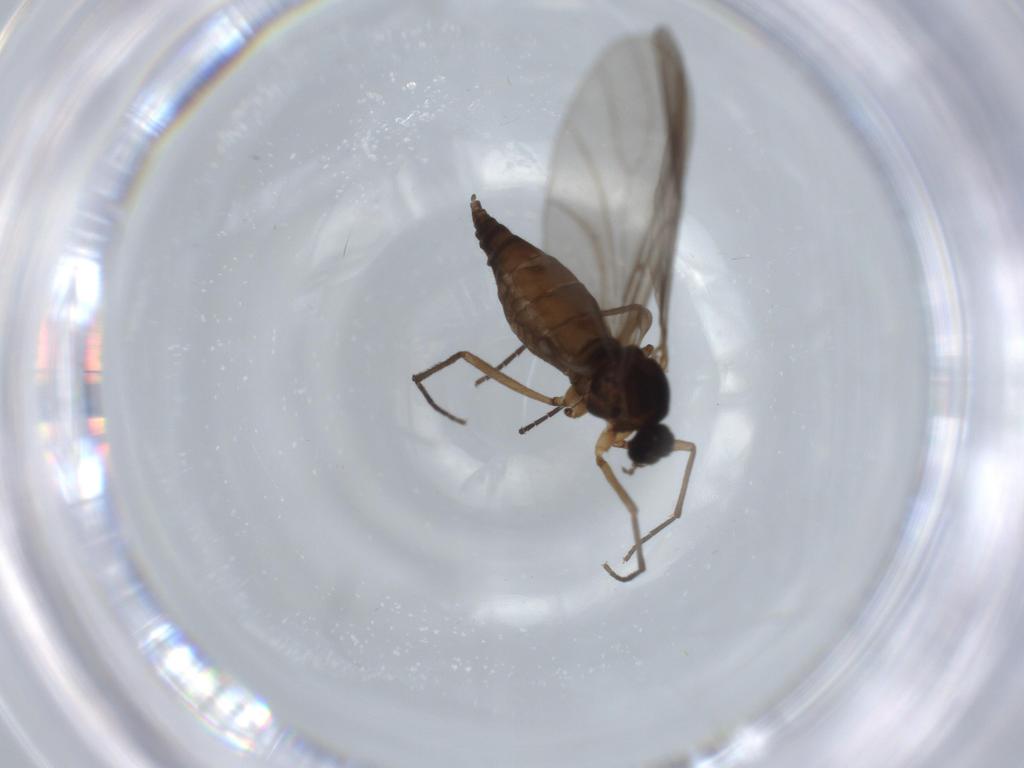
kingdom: Animalia
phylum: Arthropoda
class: Insecta
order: Diptera
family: Sciaridae
